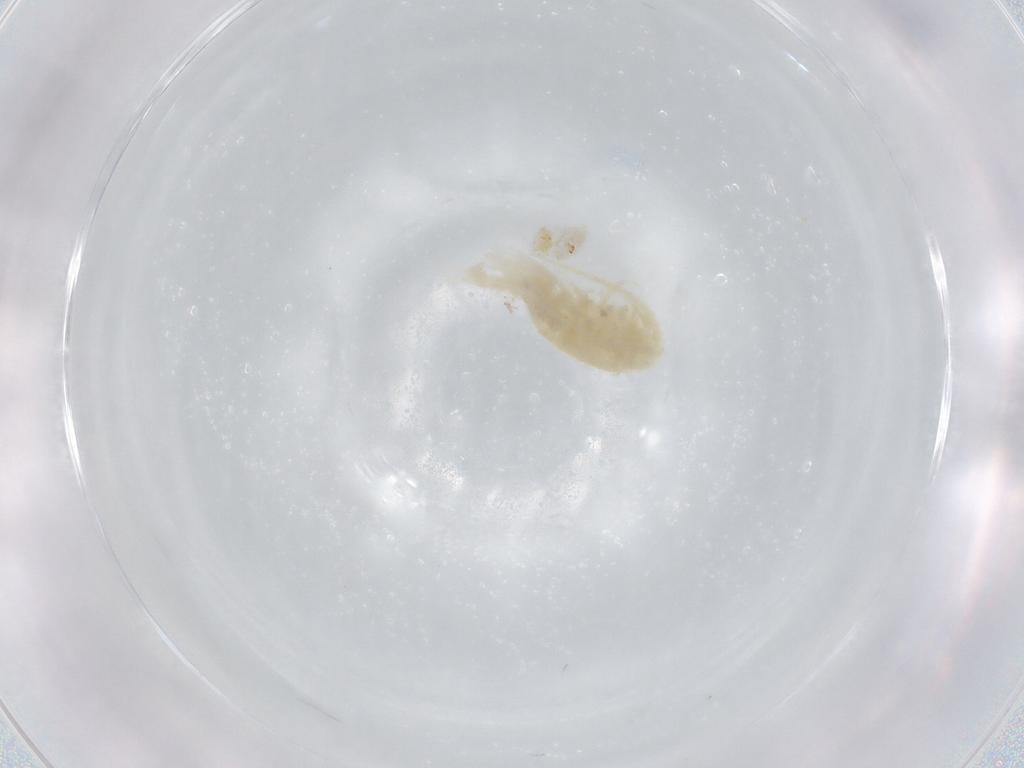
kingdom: Animalia
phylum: Arthropoda
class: Copepoda
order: Calanoida
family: Diaptomidae
